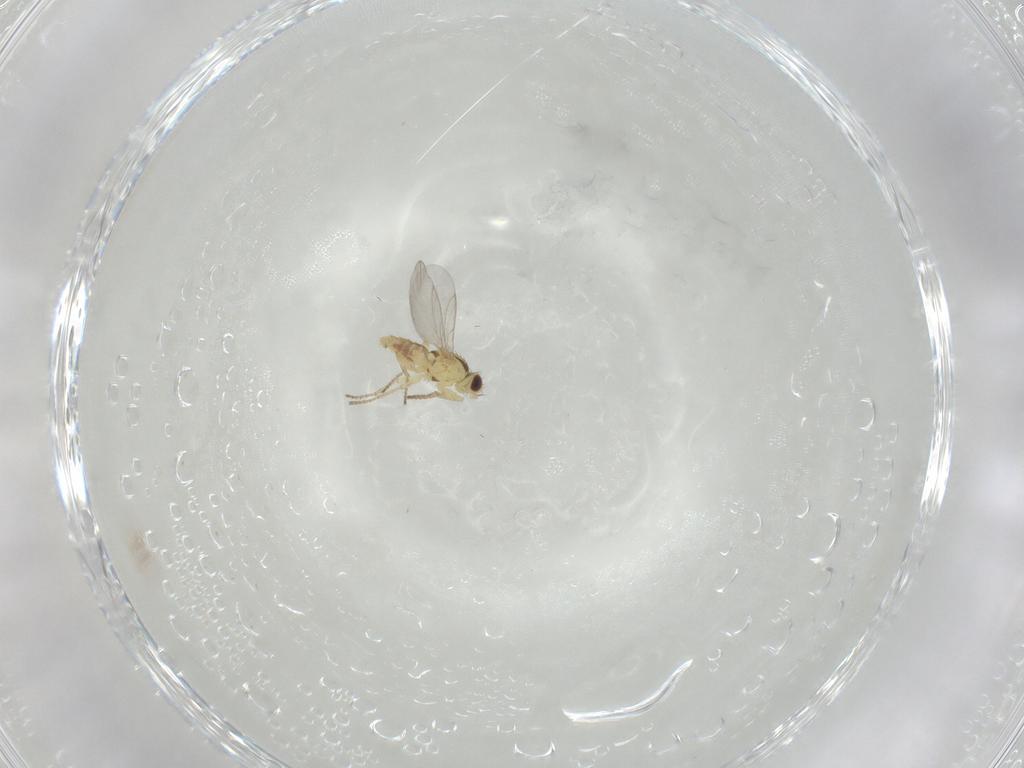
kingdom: Animalia
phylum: Arthropoda
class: Insecta
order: Diptera
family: Agromyzidae
